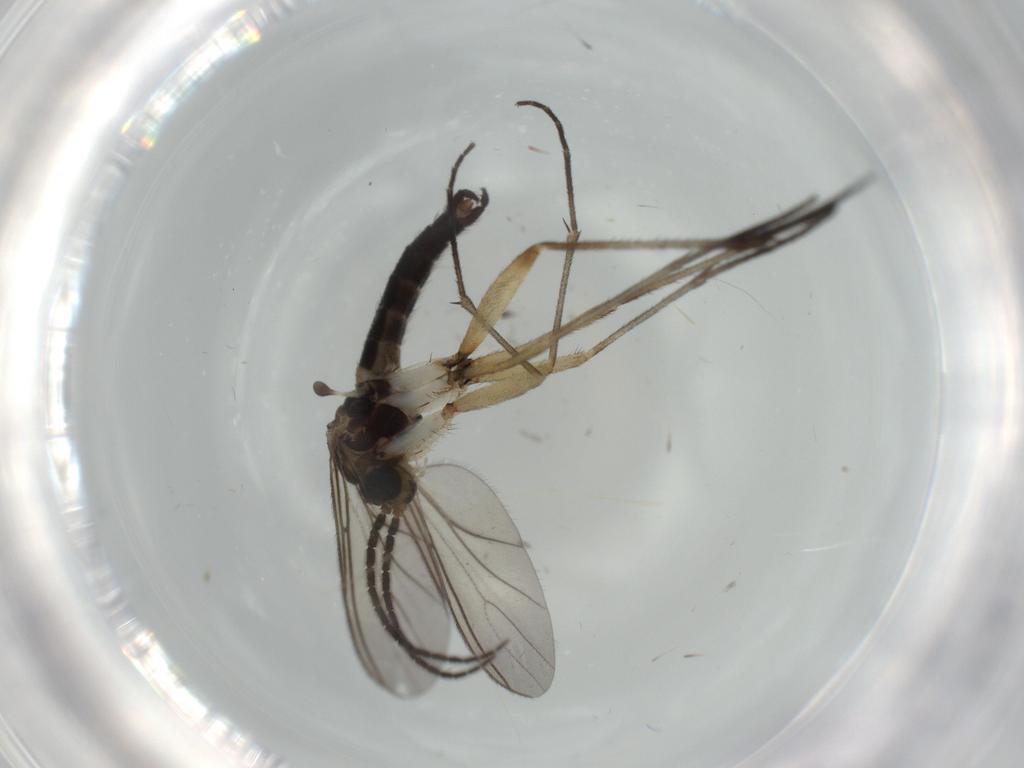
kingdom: Animalia
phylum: Arthropoda
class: Insecta
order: Diptera
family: Sciaridae
